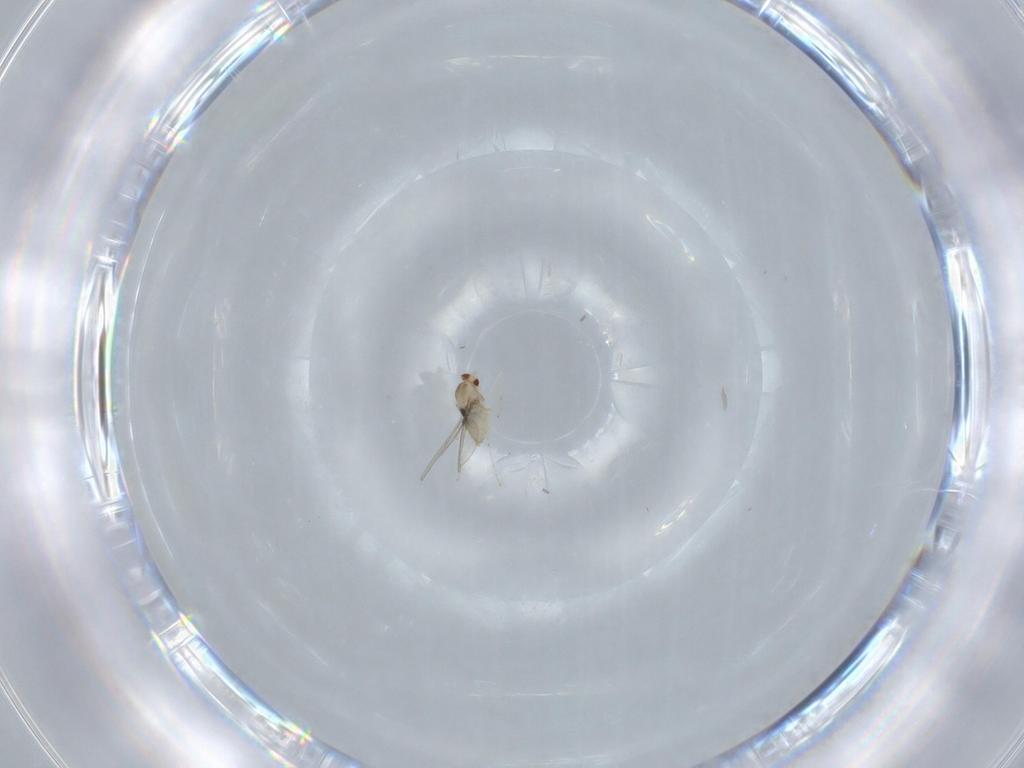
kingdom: Animalia
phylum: Arthropoda
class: Insecta
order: Diptera
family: Cecidomyiidae
